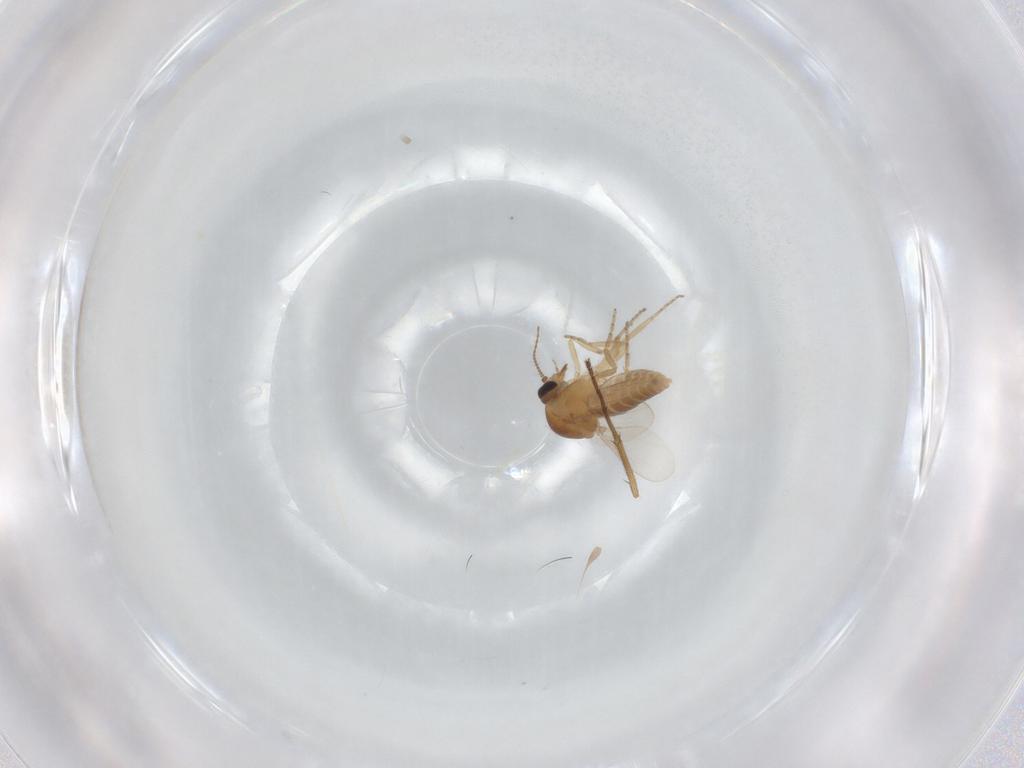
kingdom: Animalia
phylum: Arthropoda
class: Insecta
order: Diptera
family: Ceratopogonidae
